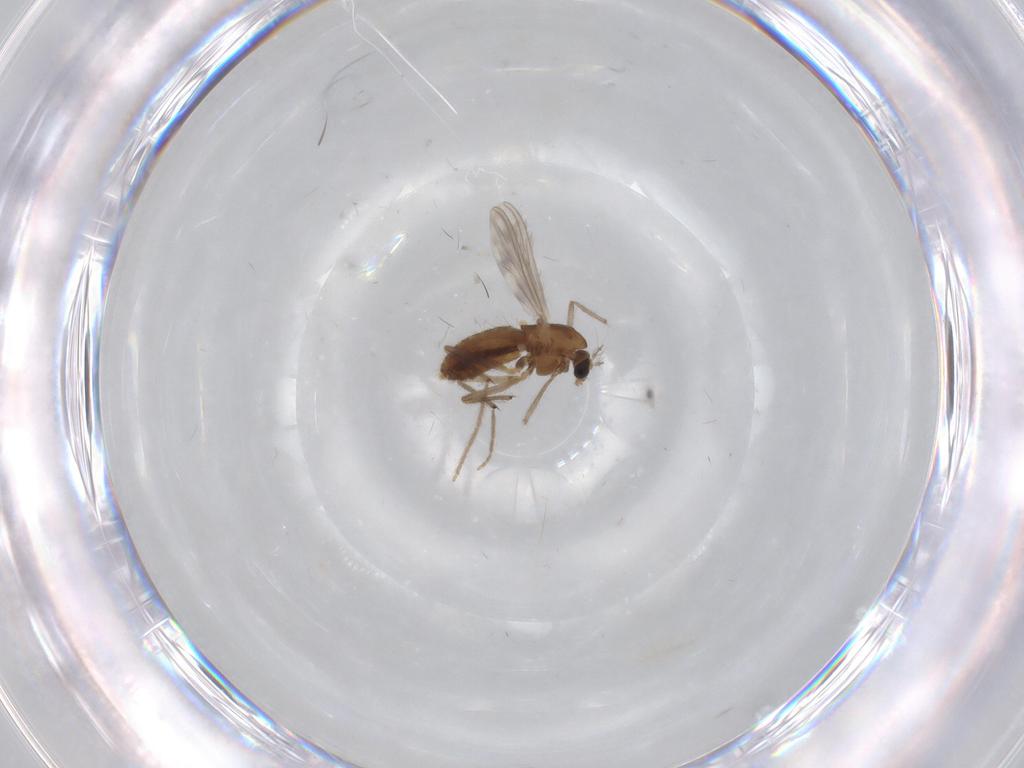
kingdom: Animalia
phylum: Arthropoda
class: Insecta
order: Diptera
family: Chironomidae
